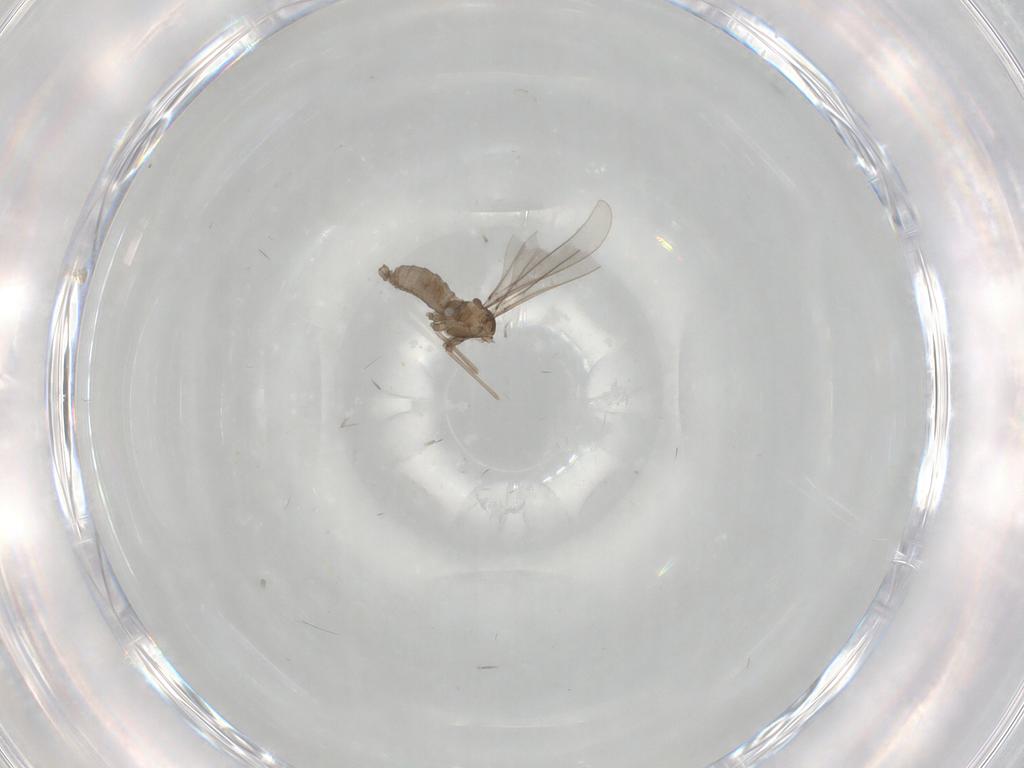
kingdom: Animalia
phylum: Arthropoda
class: Insecta
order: Diptera
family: Cecidomyiidae
